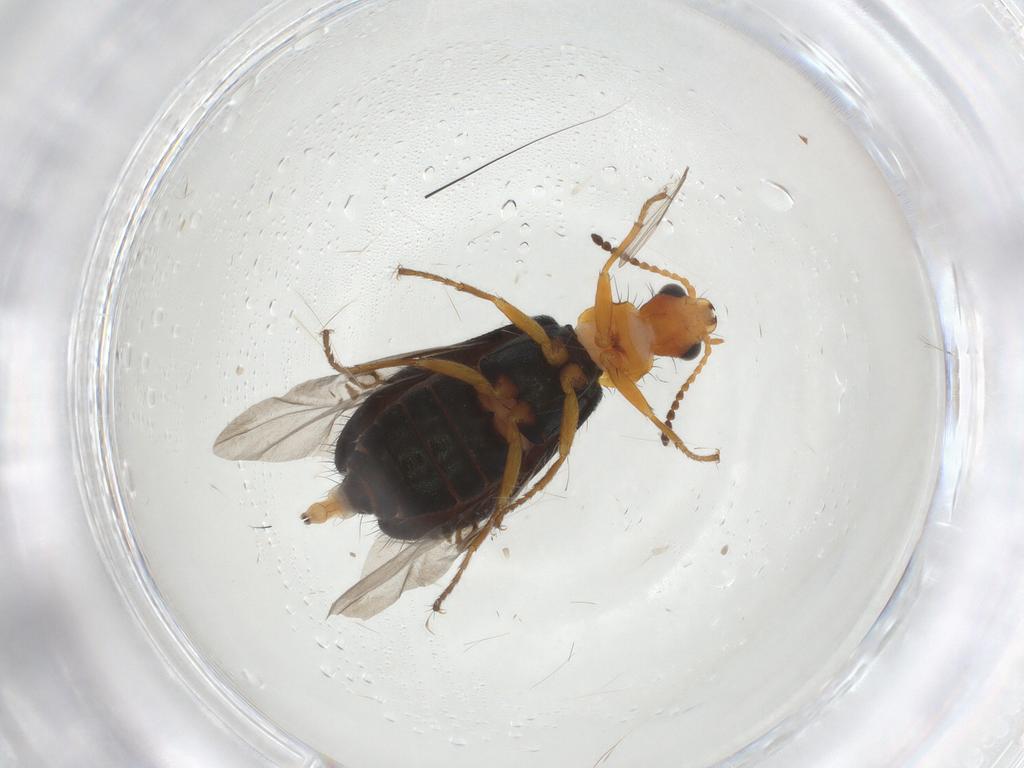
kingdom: Animalia
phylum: Arthropoda
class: Insecta
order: Coleoptera
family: Melyridae
